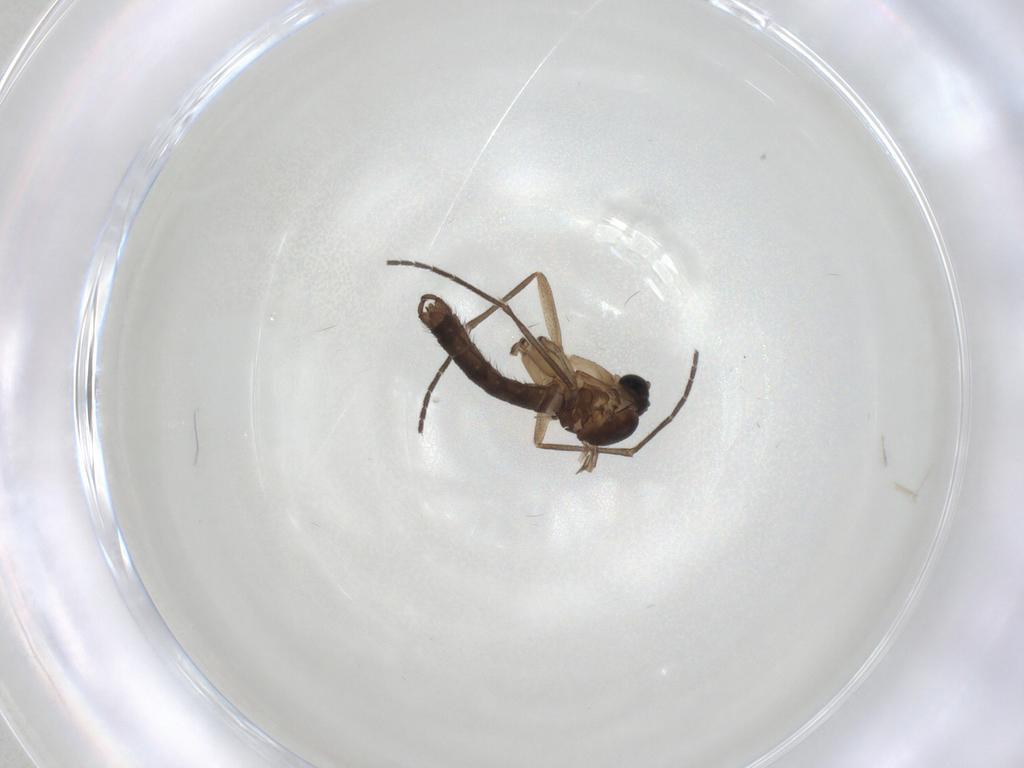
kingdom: Animalia
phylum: Arthropoda
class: Insecta
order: Diptera
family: Sciaridae
